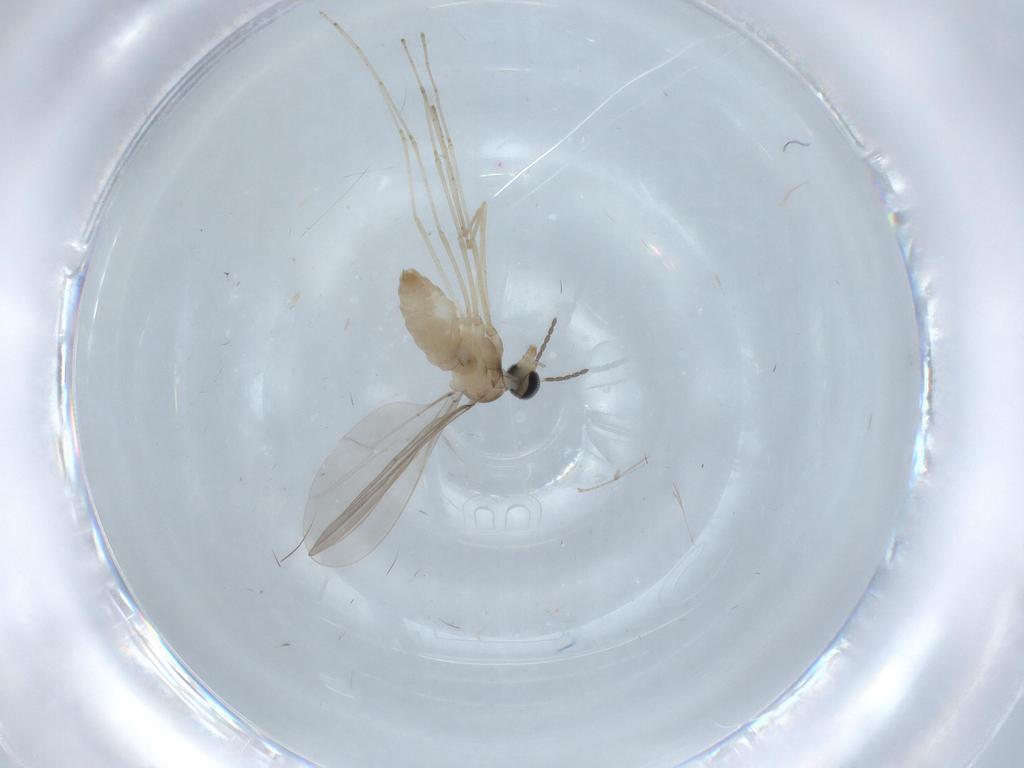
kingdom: Animalia
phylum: Arthropoda
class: Insecta
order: Diptera
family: Cecidomyiidae
